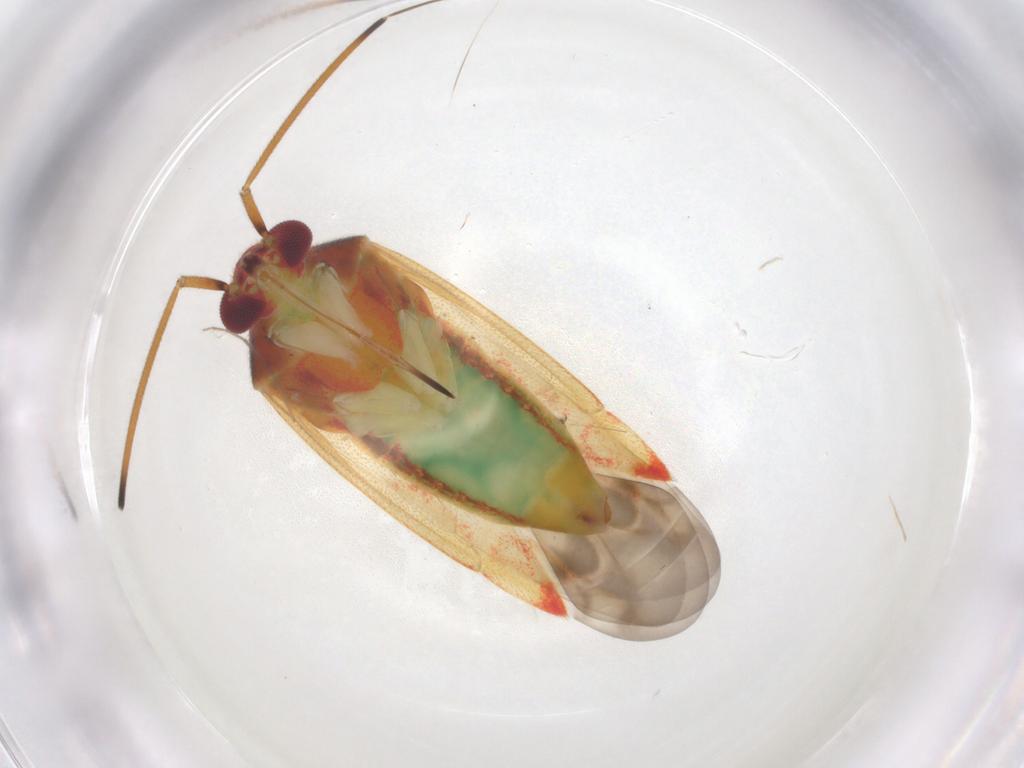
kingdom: Animalia
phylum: Arthropoda
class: Insecta
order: Hemiptera
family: Miridae
